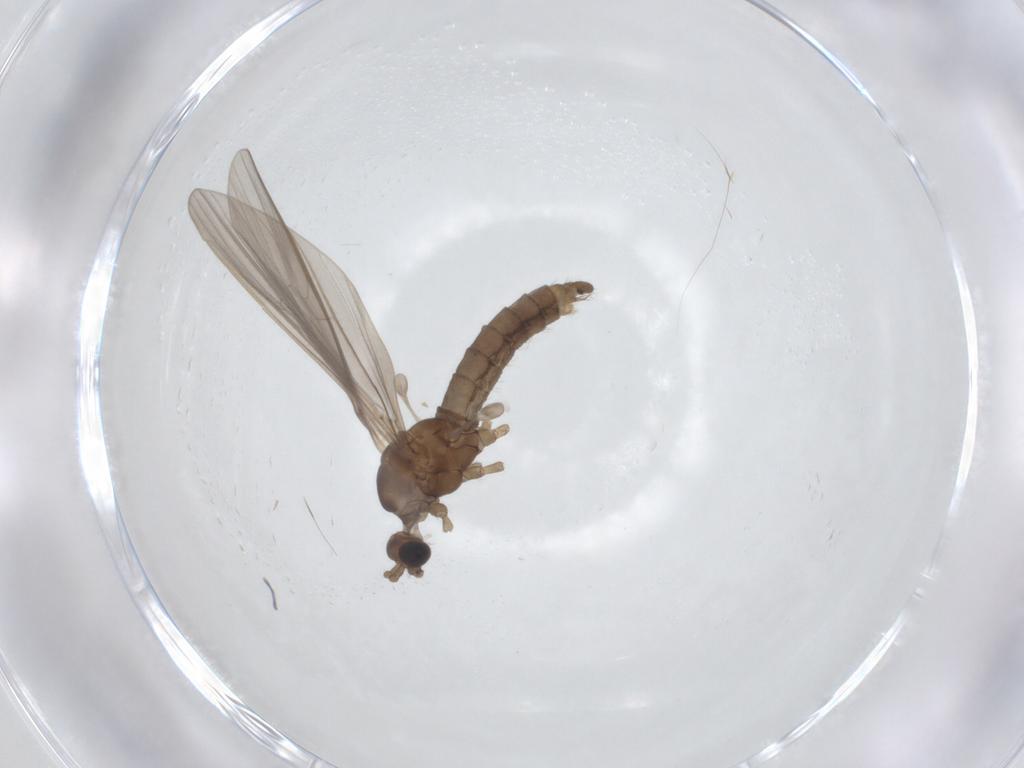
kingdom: Animalia
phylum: Arthropoda
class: Insecta
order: Diptera
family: Limoniidae
